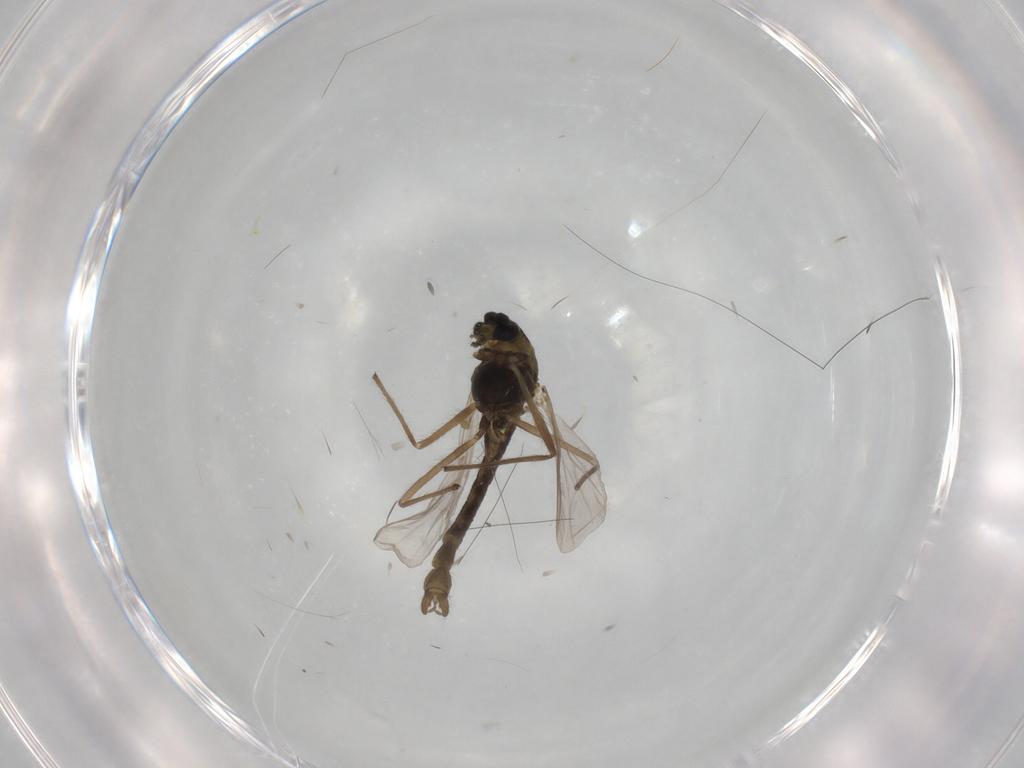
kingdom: Animalia
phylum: Arthropoda
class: Insecta
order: Diptera
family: Chironomidae
